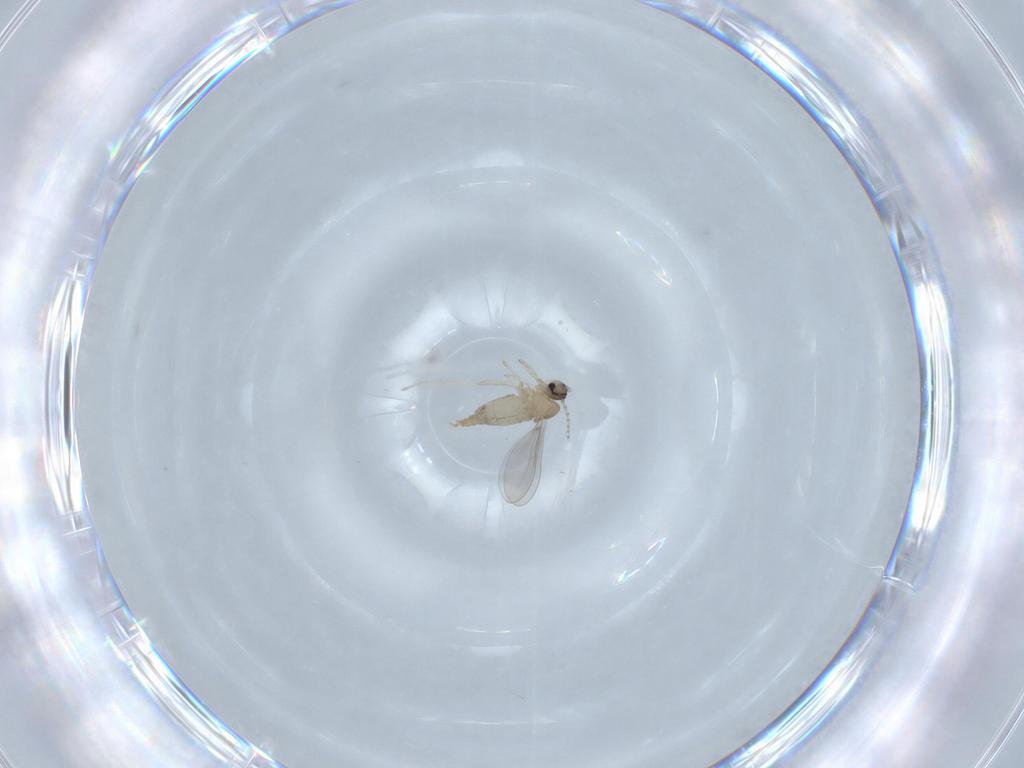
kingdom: Animalia
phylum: Arthropoda
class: Insecta
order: Diptera
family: Cecidomyiidae
